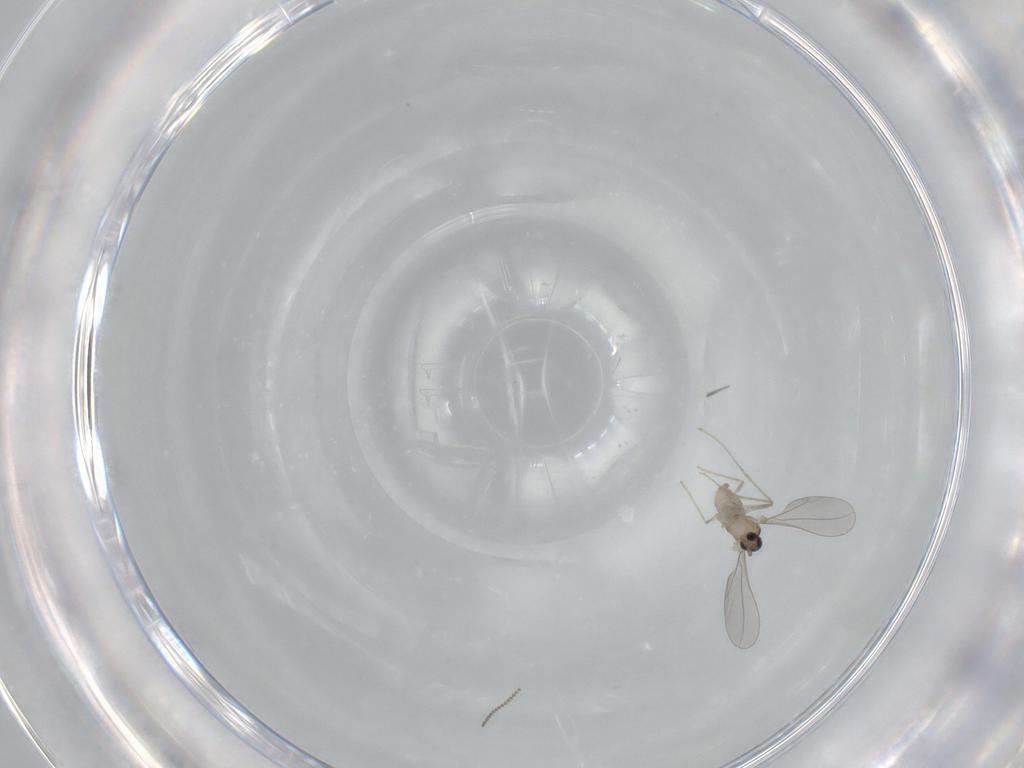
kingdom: Animalia
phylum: Arthropoda
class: Insecta
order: Diptera
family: Cecidomyiidae
